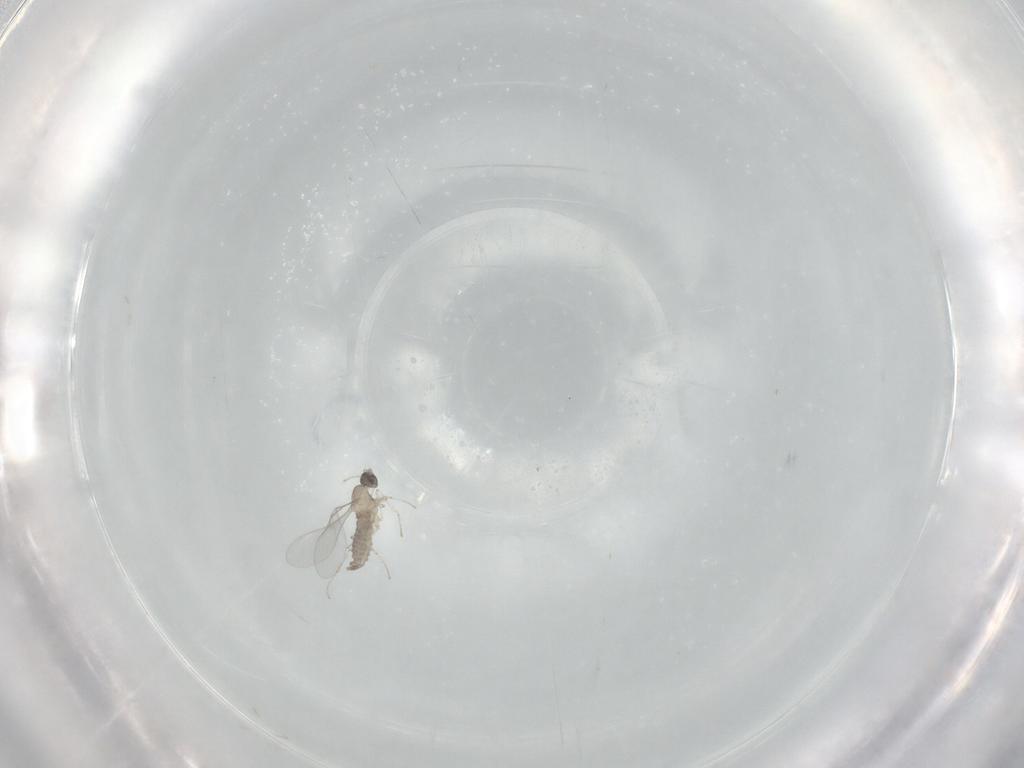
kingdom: Animalia
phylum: Arthropoda
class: Insecta
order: Diptera
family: Cecidomyiidae
